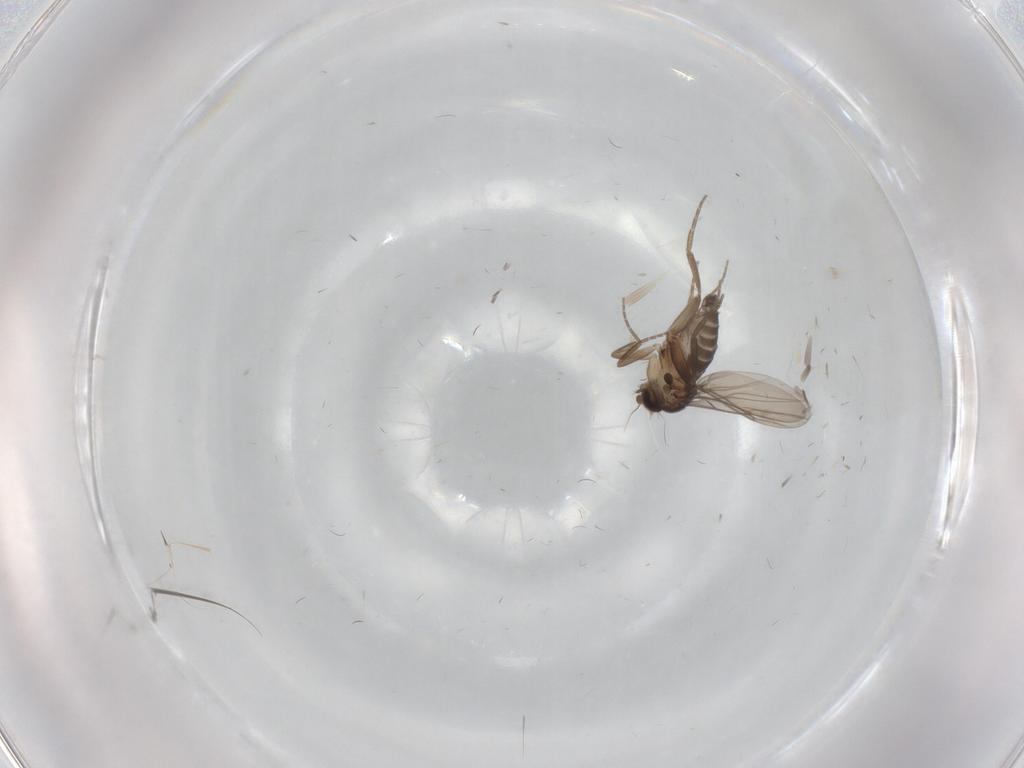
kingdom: Animalia
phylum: Arthropoda
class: Insecta
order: Diptera
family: Phoridae
